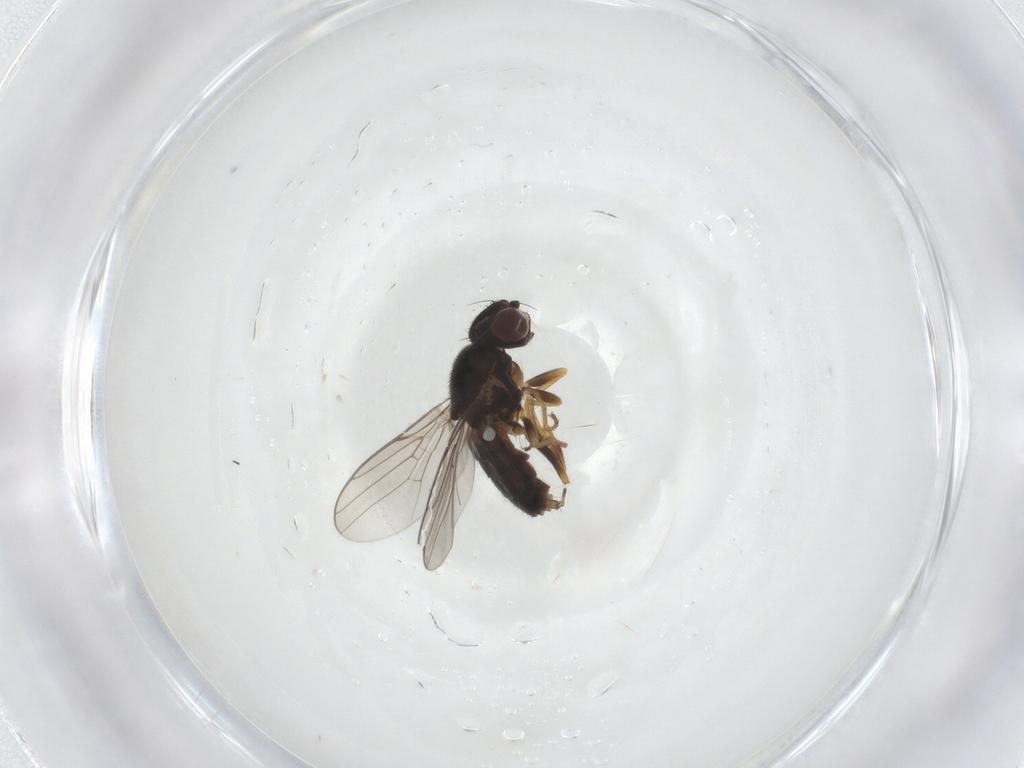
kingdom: Animalia
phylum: Arthropoda
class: Insecta
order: Diptera
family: Chloropidae
